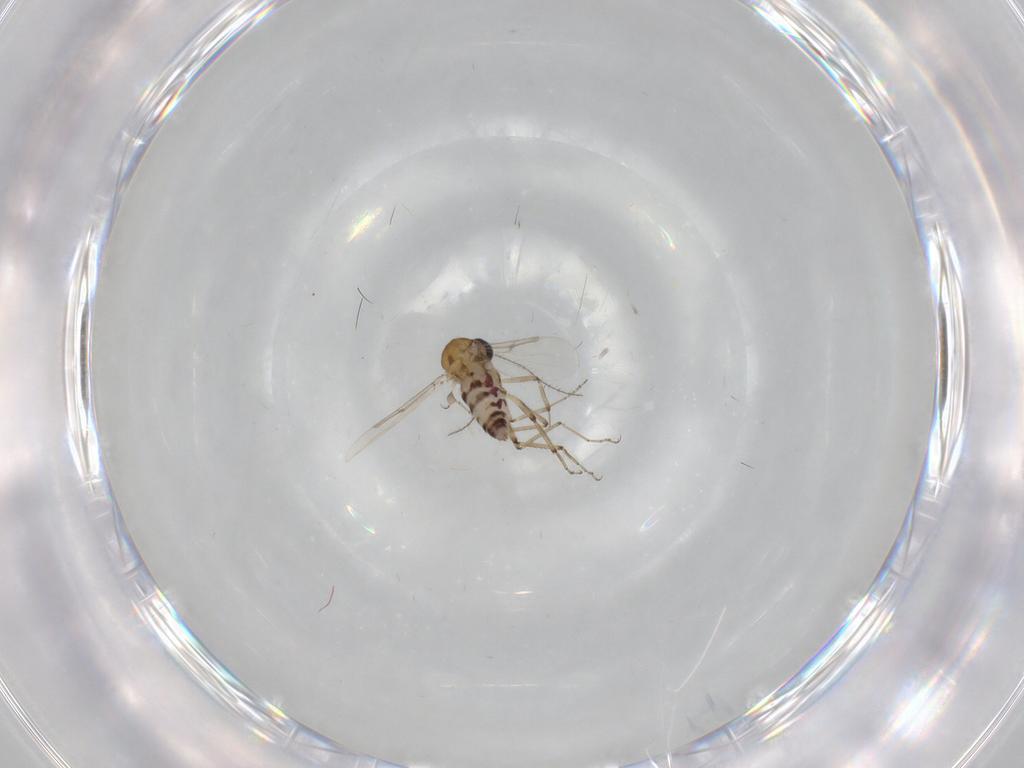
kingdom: Animalia
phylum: Arthropoda
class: Insecta
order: Diptera
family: Ceratopogonidae
